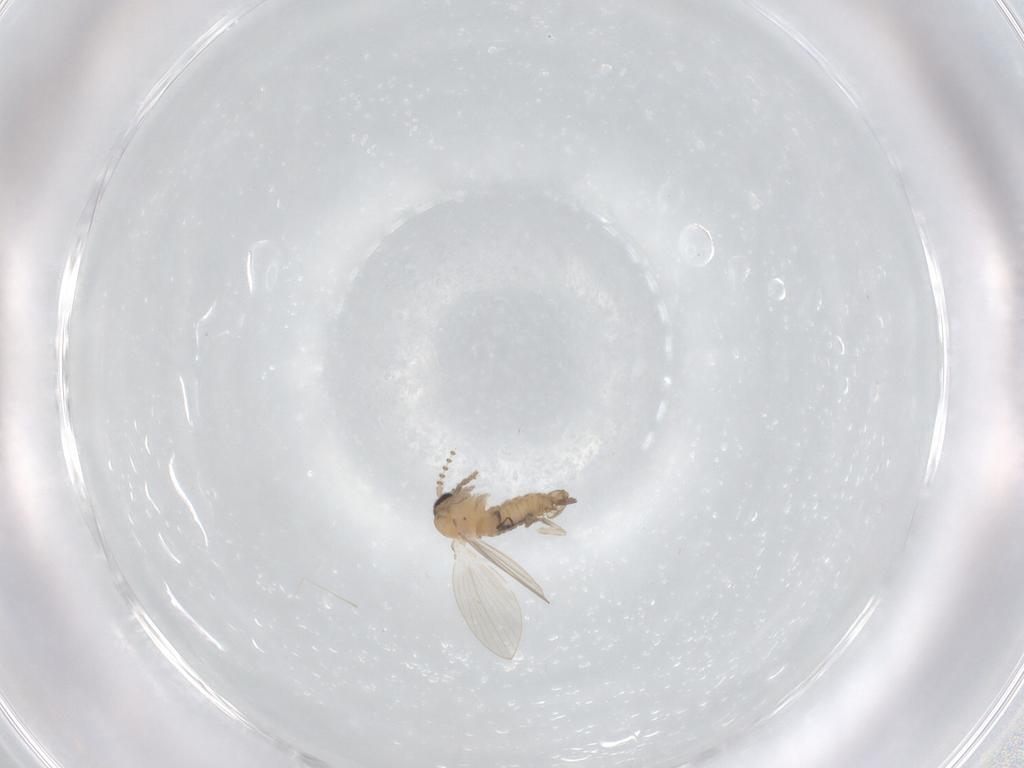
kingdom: Animalia
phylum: Arthropoda
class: Insecta
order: Diptera
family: Psychodidae
